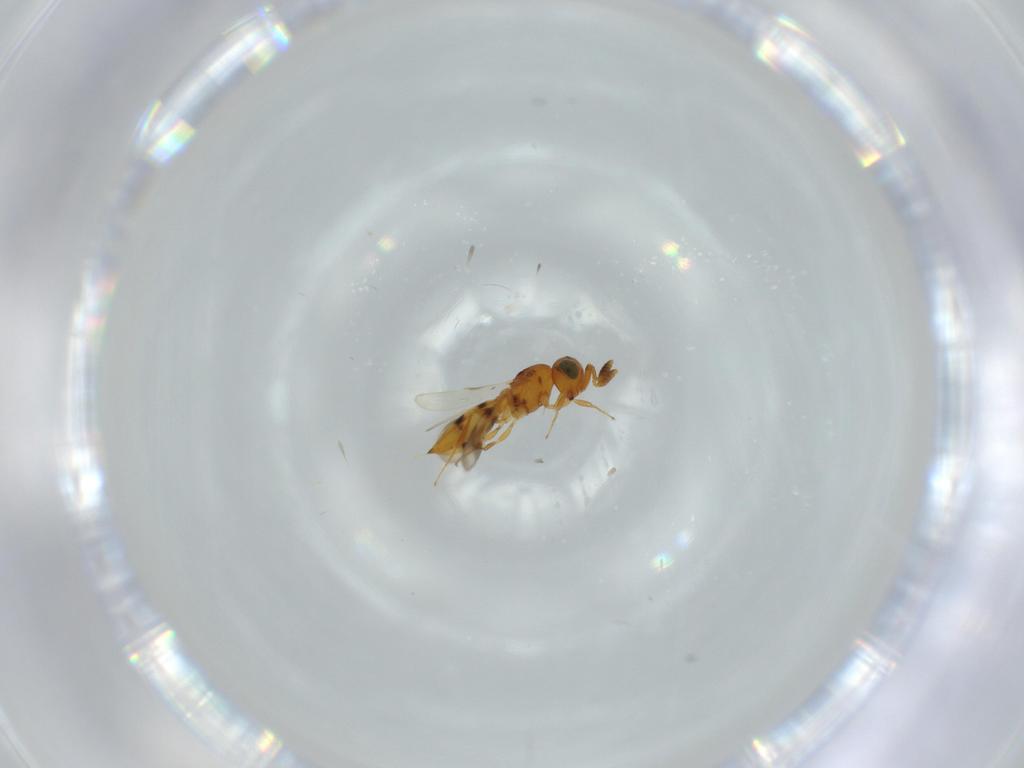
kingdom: Animalia
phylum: Arthropoda
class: Insecta
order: Hymenoptera
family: Scelionidae
